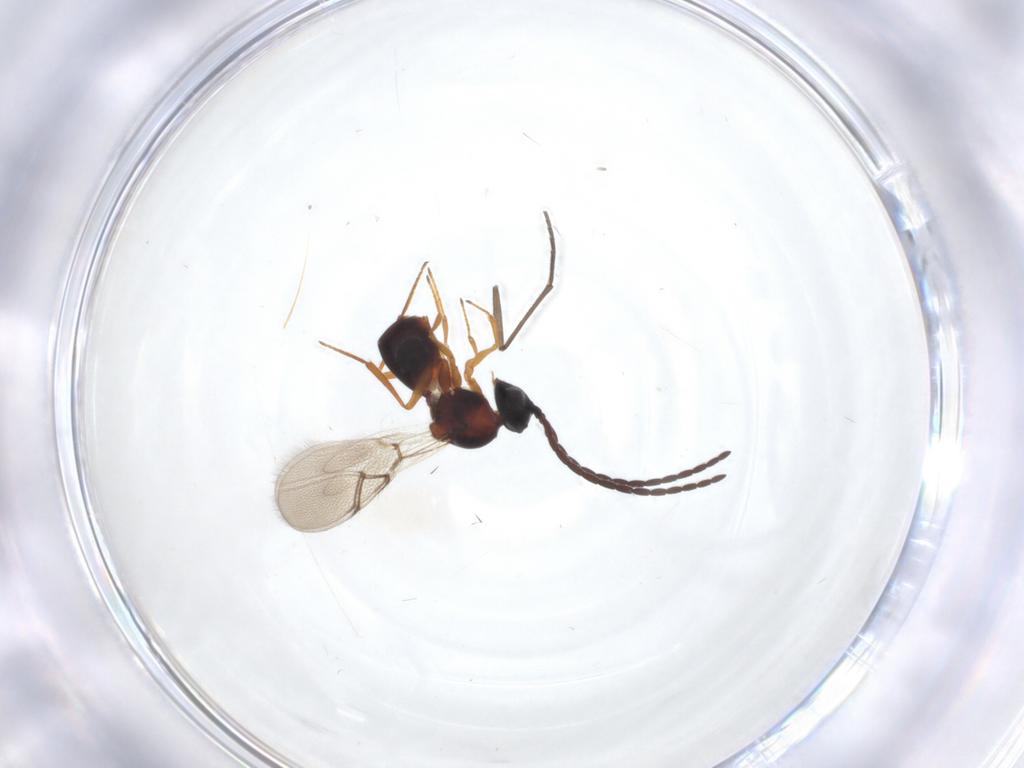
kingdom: Animalia
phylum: Arthropoda
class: Insecta
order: Hymenoptera
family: Figitidae
